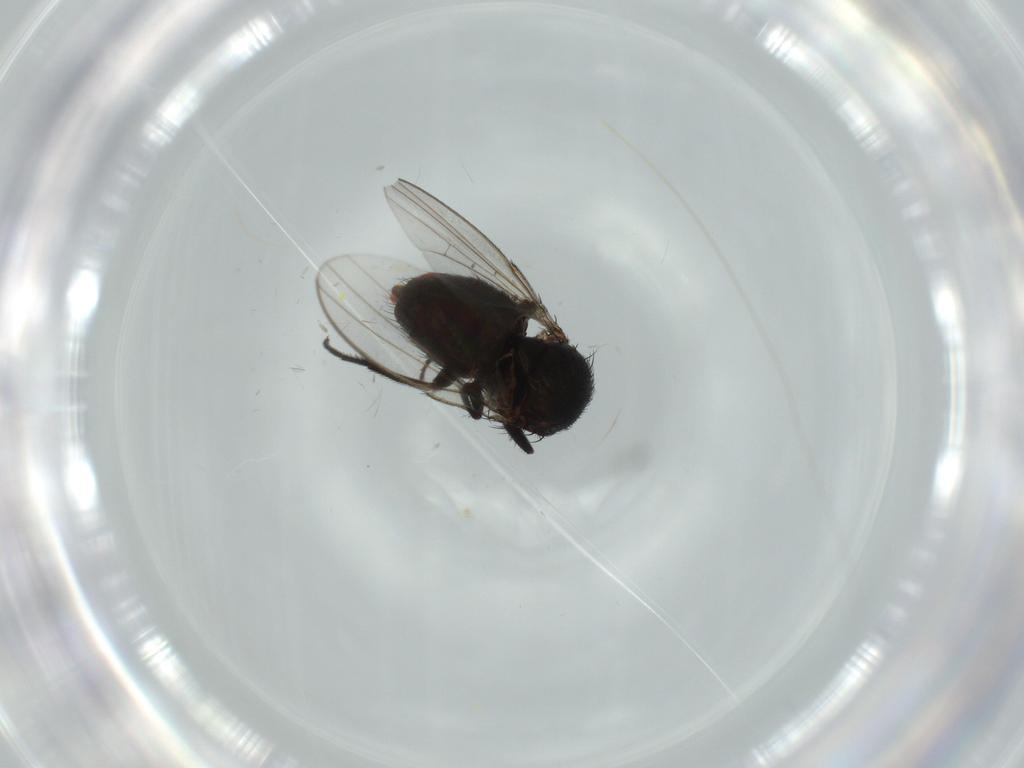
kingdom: Animalia
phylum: Arthropoda
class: Insecta
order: Diptera
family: Milichiidae
